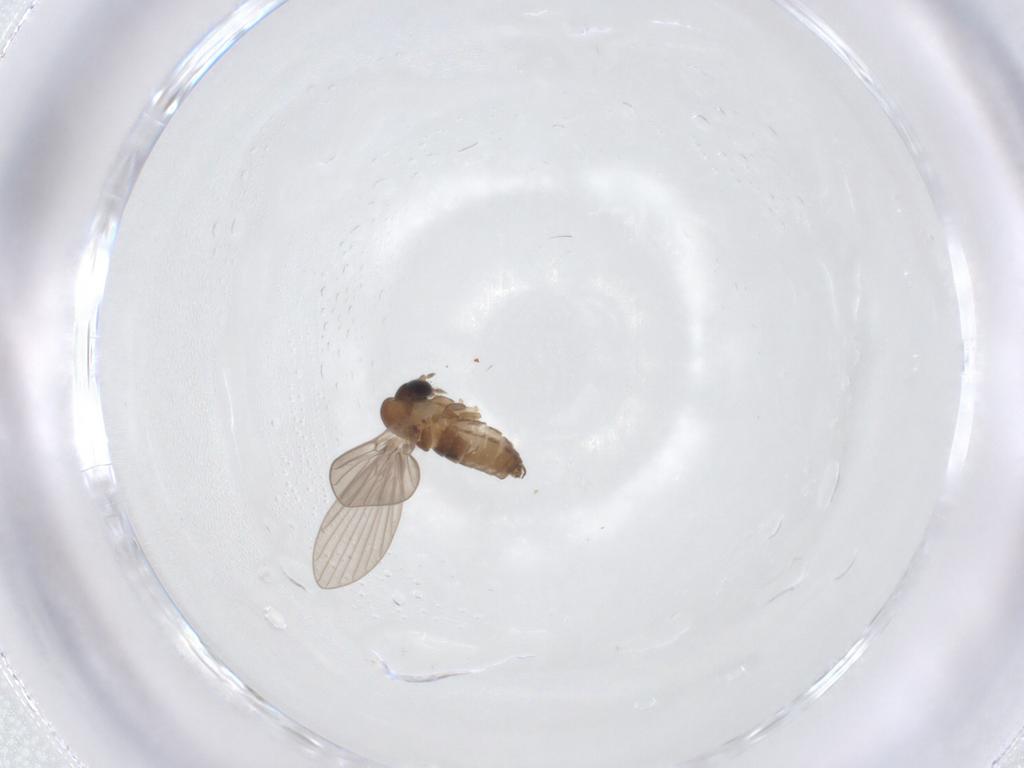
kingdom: Animalia
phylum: Arthropoda
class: Insecta
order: Diptera
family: Psychodidae
